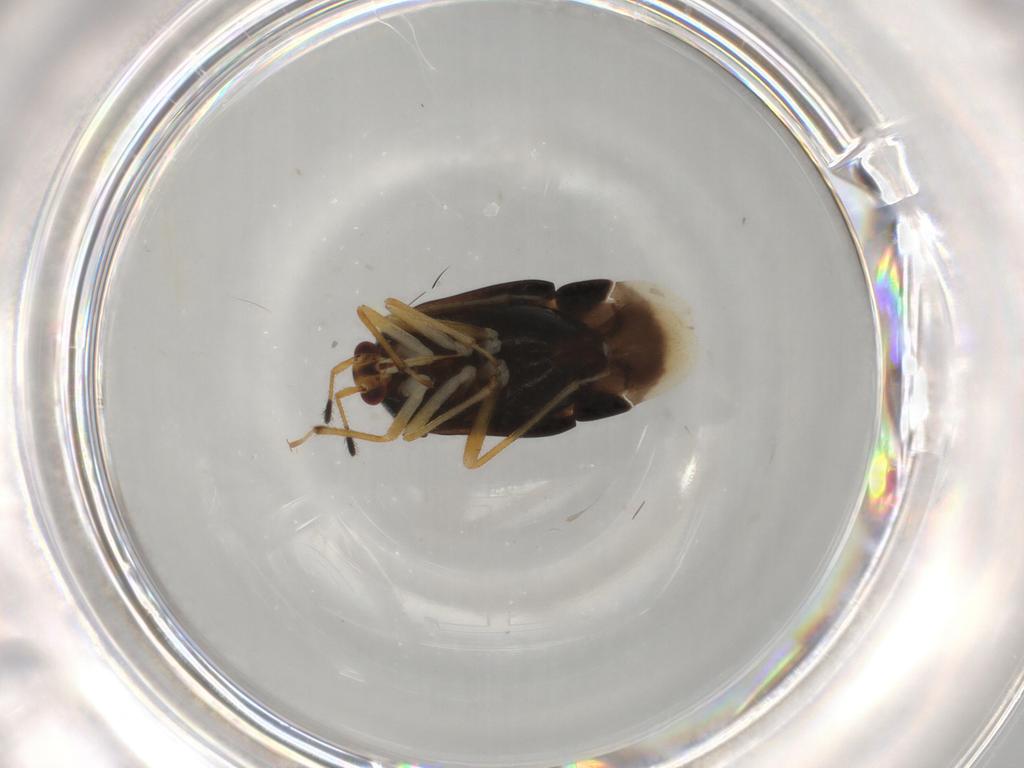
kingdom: Animalia
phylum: Arthropoda
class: Insecta
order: Hemiptera
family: Miridae
